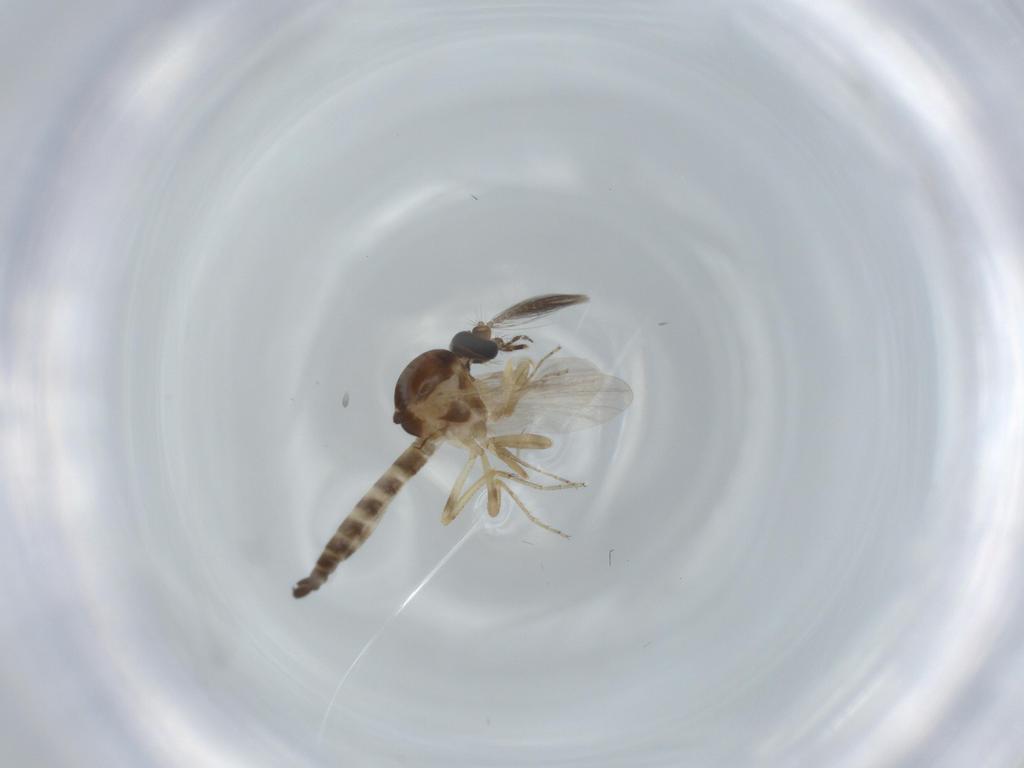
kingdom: Animalia
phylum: Arthropoda
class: Insecta
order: Diptera
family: Ceratopogonidae
